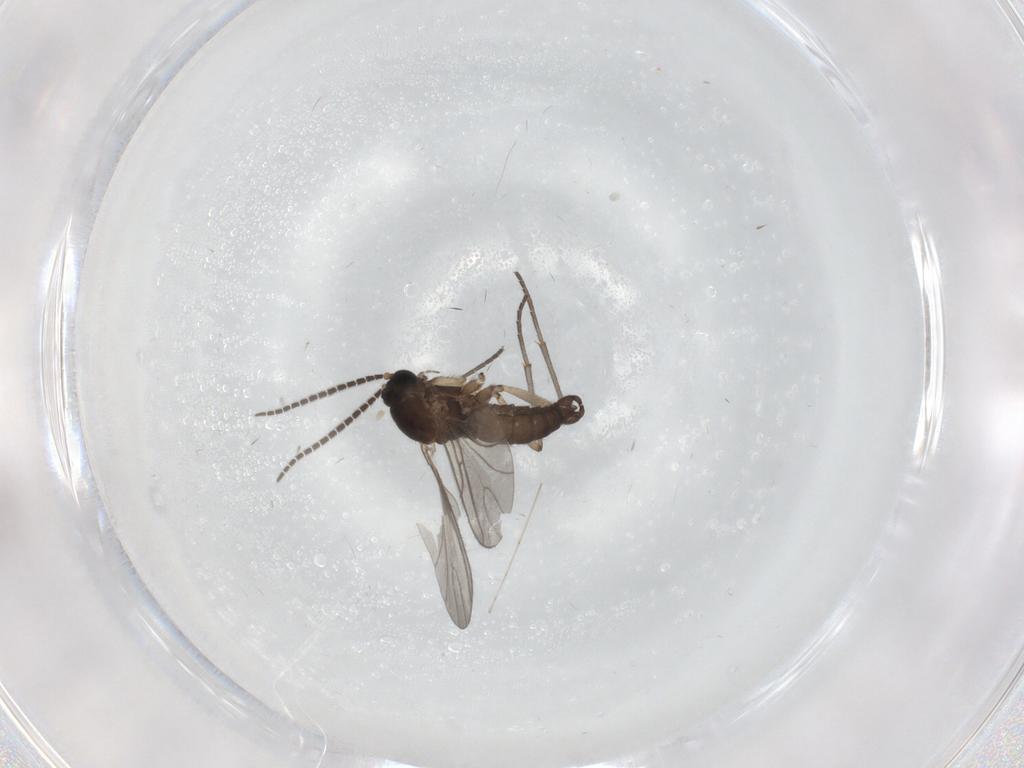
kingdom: Animalia
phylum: Arthropoda
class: Insecta
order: Diptera
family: Sciaridae
